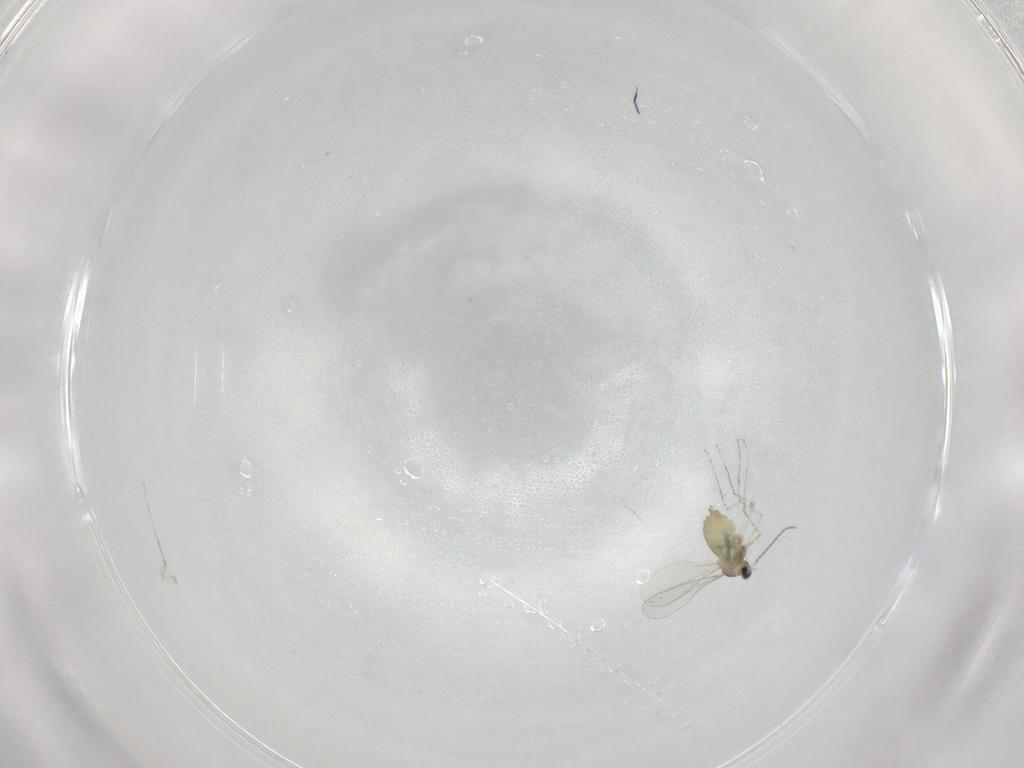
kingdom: Animalia
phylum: Arthropoda
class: Insecta
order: Diptera
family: Cecidomyiidae
